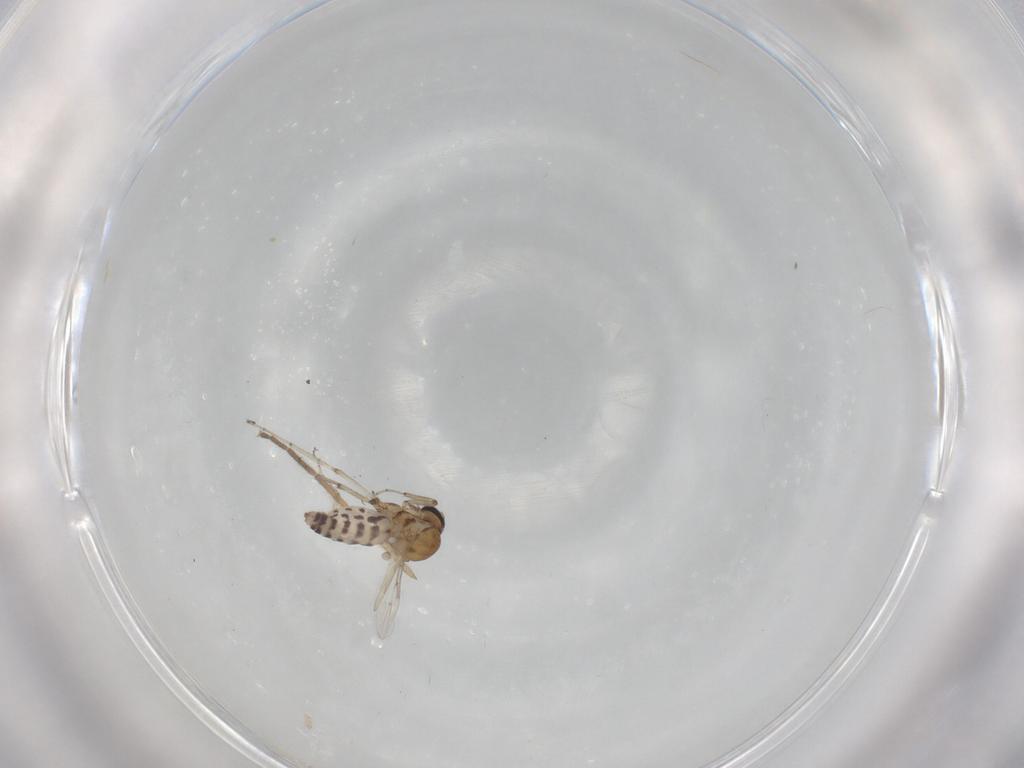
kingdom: Animalia
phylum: Arthropoda
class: Insecta
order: Diptera
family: Ceratopogonidae
